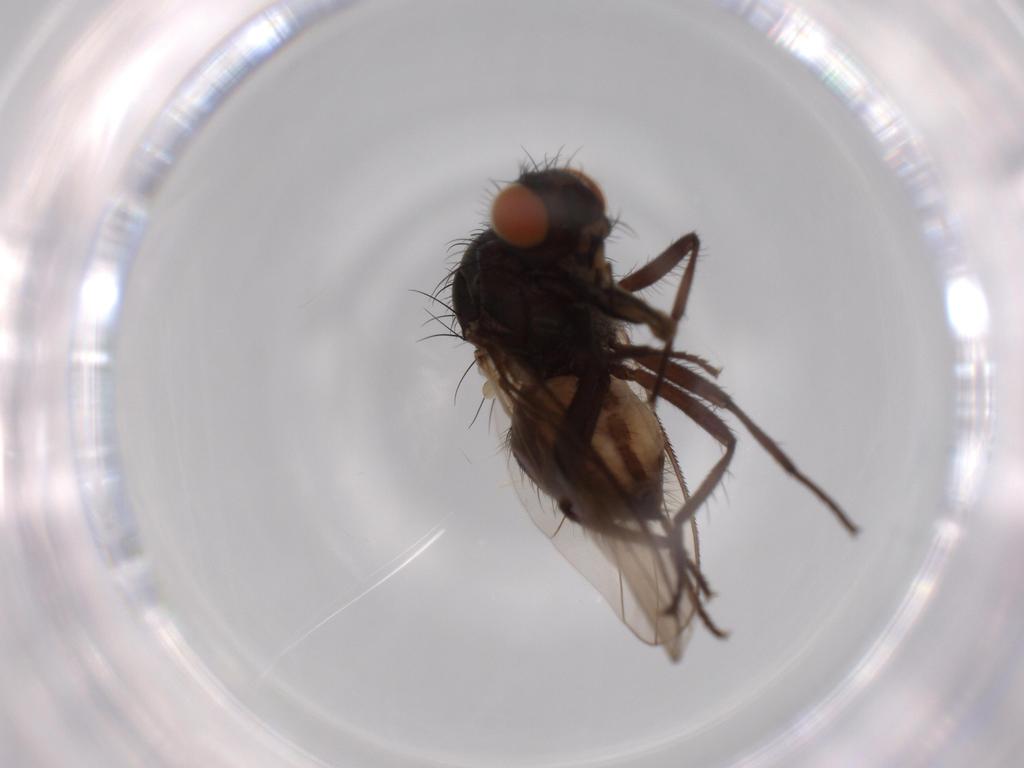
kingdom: Animalia
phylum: Arthropoda
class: Insecta
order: Diptera
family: Anthomyiidae
